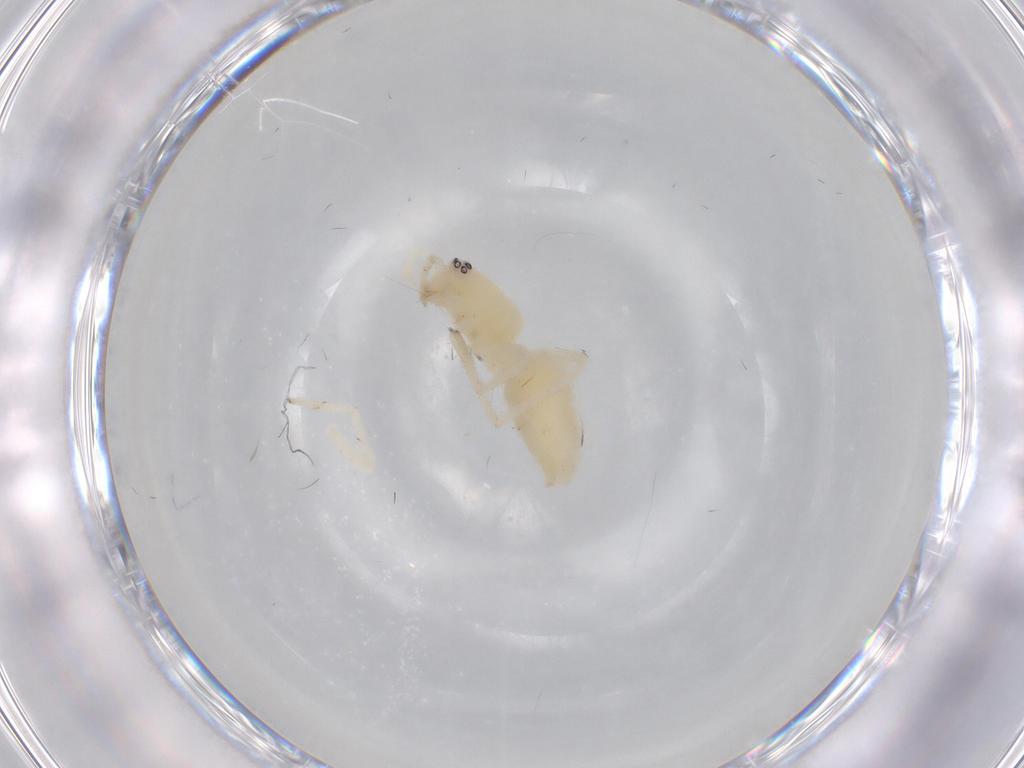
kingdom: Animalia
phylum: Arthropoda
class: Arachnida
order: Araneae
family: Anyphaenidae
